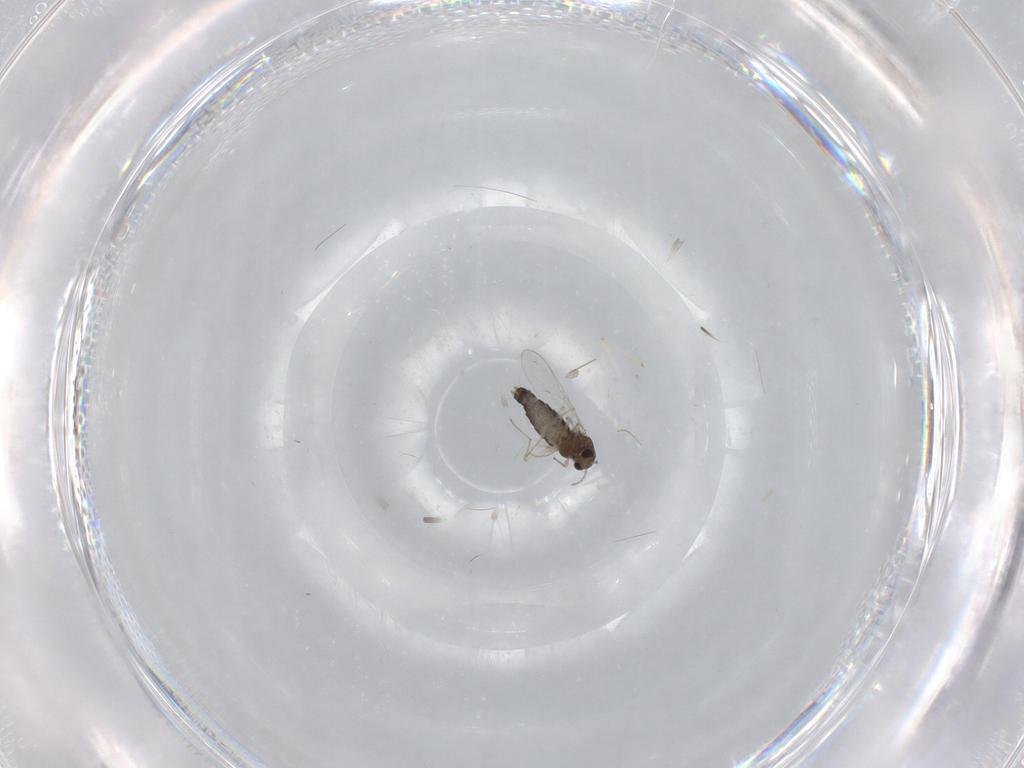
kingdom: Animalia
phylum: Arthropoda
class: Insecta
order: Diptera
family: Chironomidae
